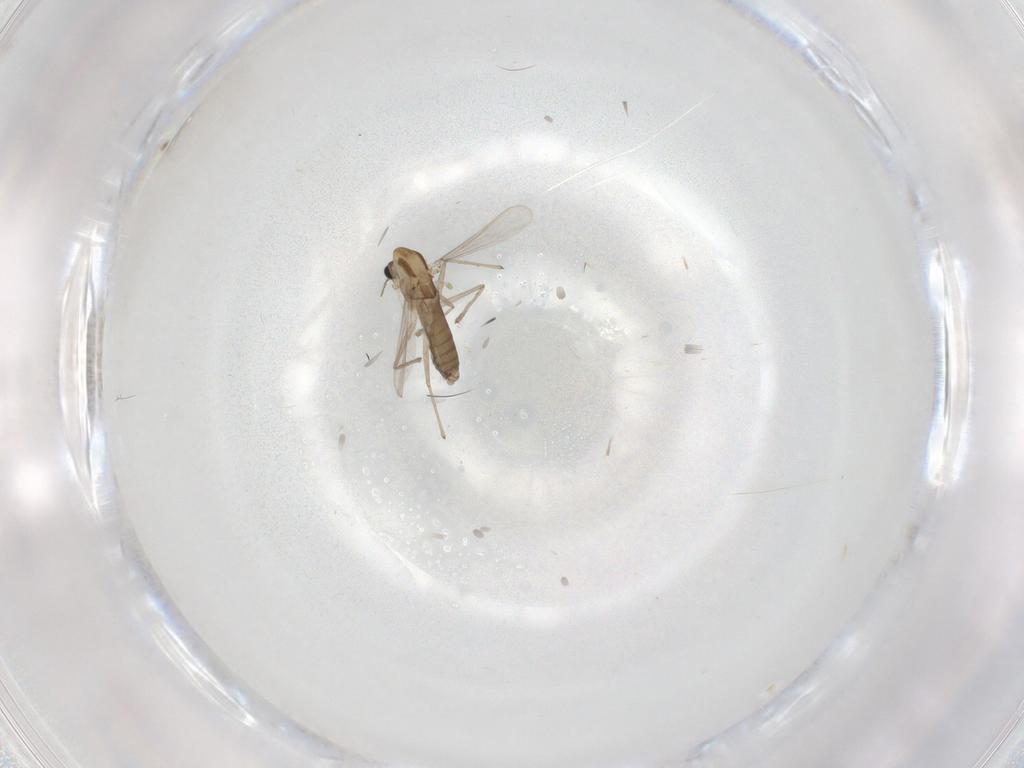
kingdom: Animalia
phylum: Arthropoda
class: Insecta
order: Diptera
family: Chironomidae
